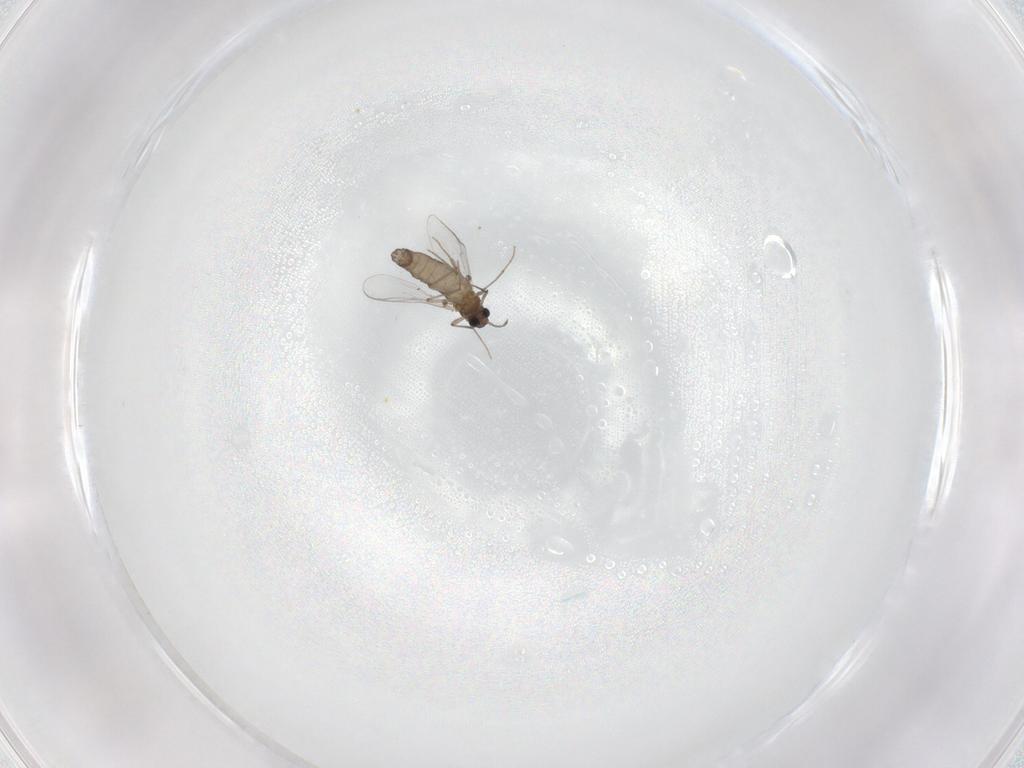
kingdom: Animalia
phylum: Arthropoda
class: Insecta
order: Diptera
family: Chironomidae
